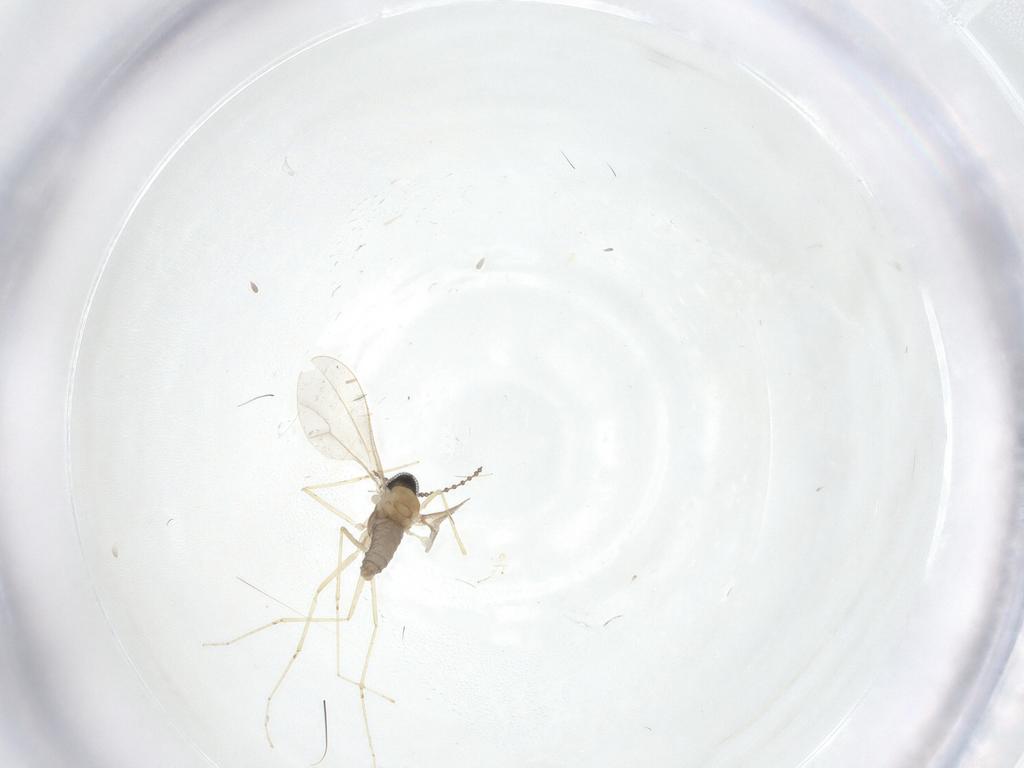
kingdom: Animalia
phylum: Arthropoda
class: Insecta
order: Diptera
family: Cecidomyiidae
